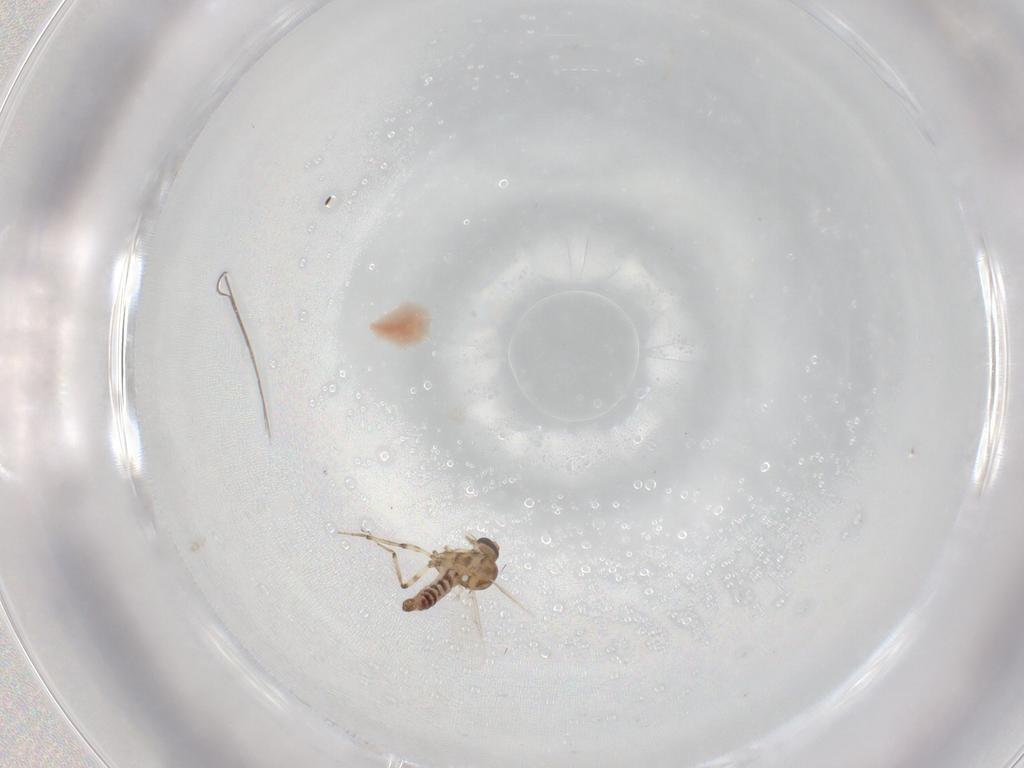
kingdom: Animalia
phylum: Arthropoda
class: Insecta
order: Diptera
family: Milichiidae
